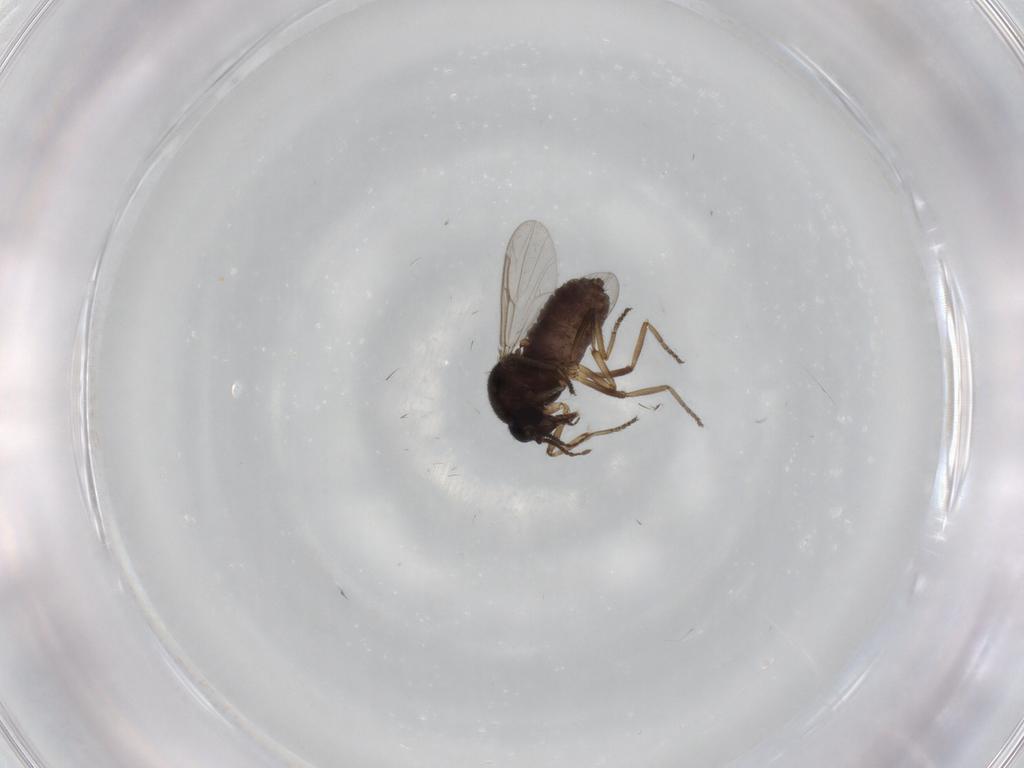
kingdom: Animalia
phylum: Arthropoda
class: Insecta
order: Diptera
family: Ceratopogonidae
